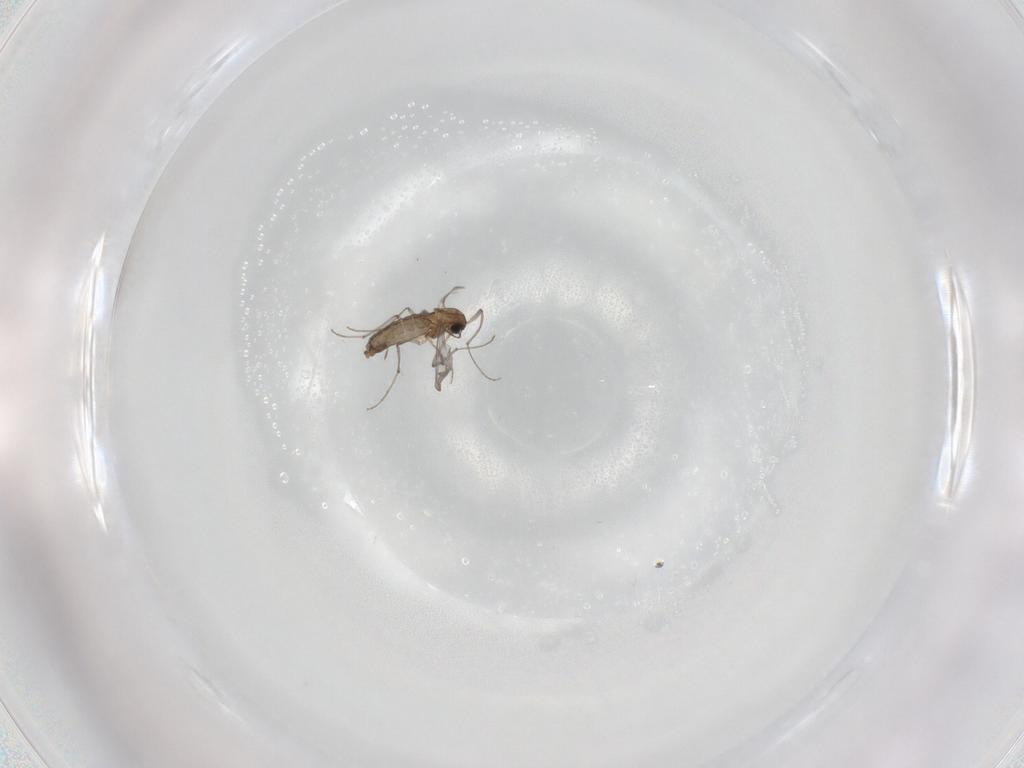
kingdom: Animalia
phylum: Arthropoda
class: Insecta
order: Diptera
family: Chironomidae
